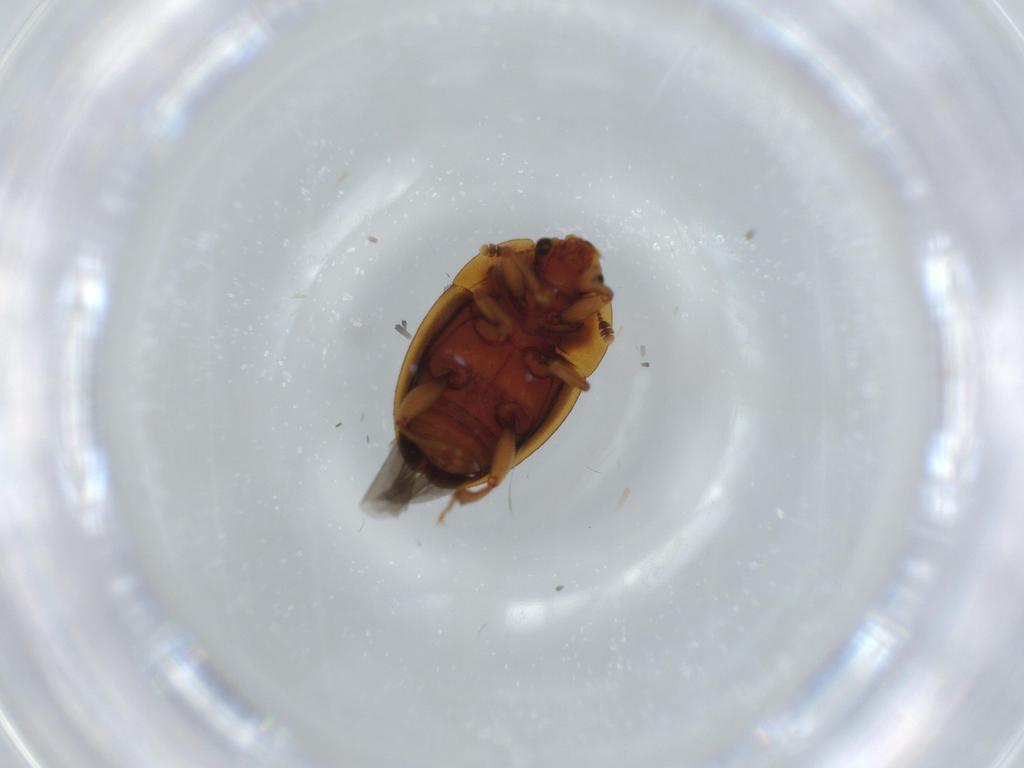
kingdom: Animalia
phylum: Arthropoda
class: Insecta
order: Coleoptera
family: Nitidulidae
